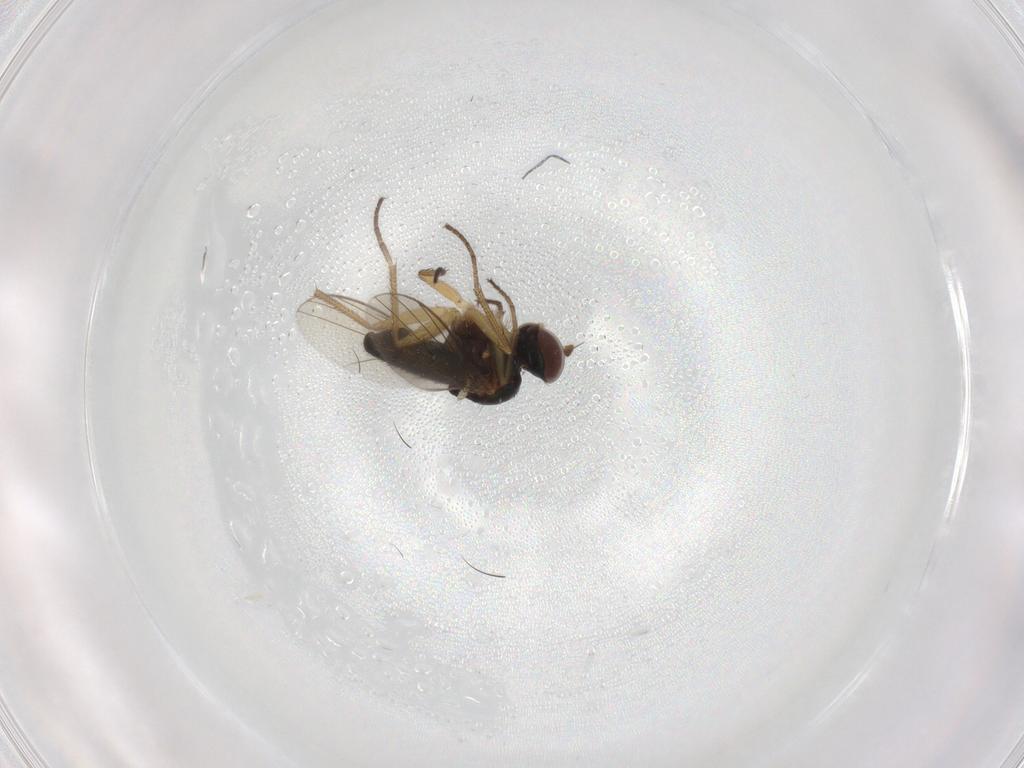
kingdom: Animalia
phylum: Arthropoda
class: Insecta
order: Diptera
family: Dolichopodidae
